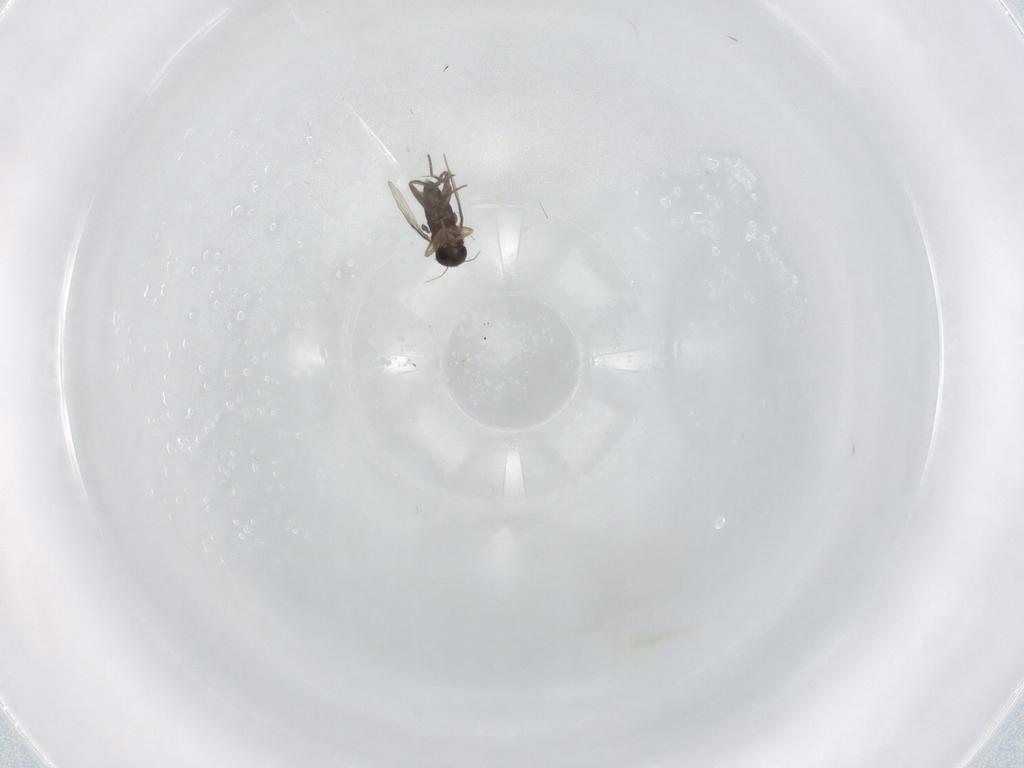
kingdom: Animalia
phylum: Arthropoda
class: Insecta
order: Diptera
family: Phoridae
